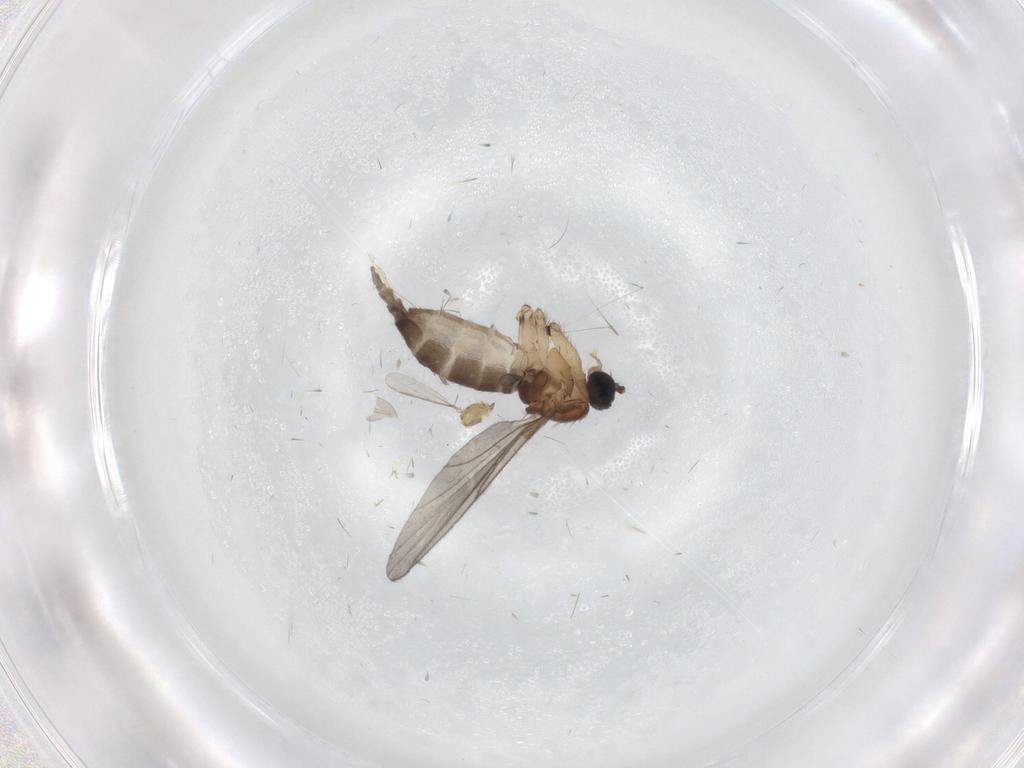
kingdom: Animalia
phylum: Arthropoda
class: Insecta
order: Diptera
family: Sciaridae
